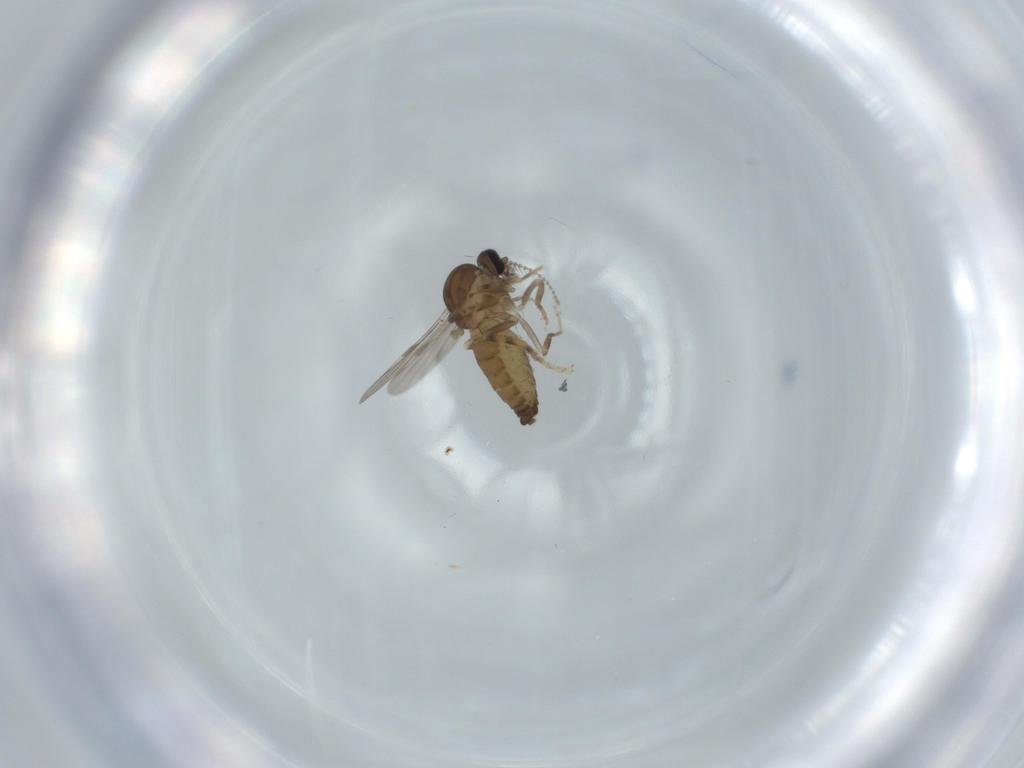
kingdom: Animalia
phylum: Arthropoda
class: Insecta
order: Diptera
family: Ceratopogonidae
